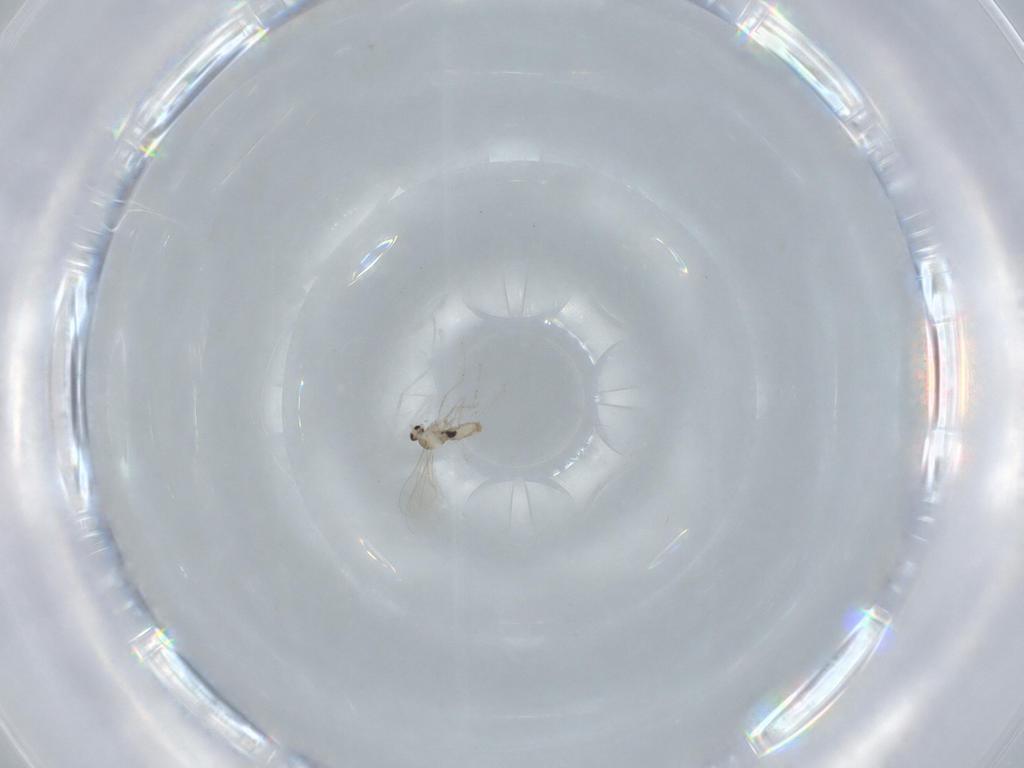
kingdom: Animalia
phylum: Arthropoda
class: Insecta
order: Diptera
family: Cecidomyiidae
